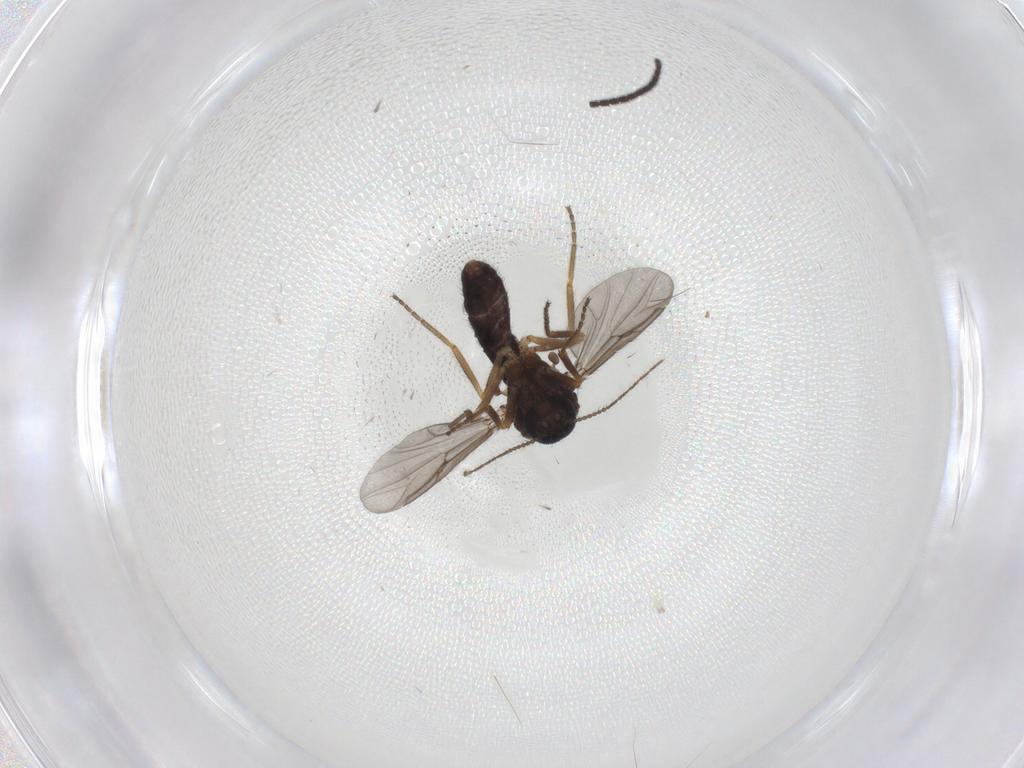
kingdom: Animalia
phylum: Arthropoda
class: Insecta
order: Diptera
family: Ceratopogonidae
